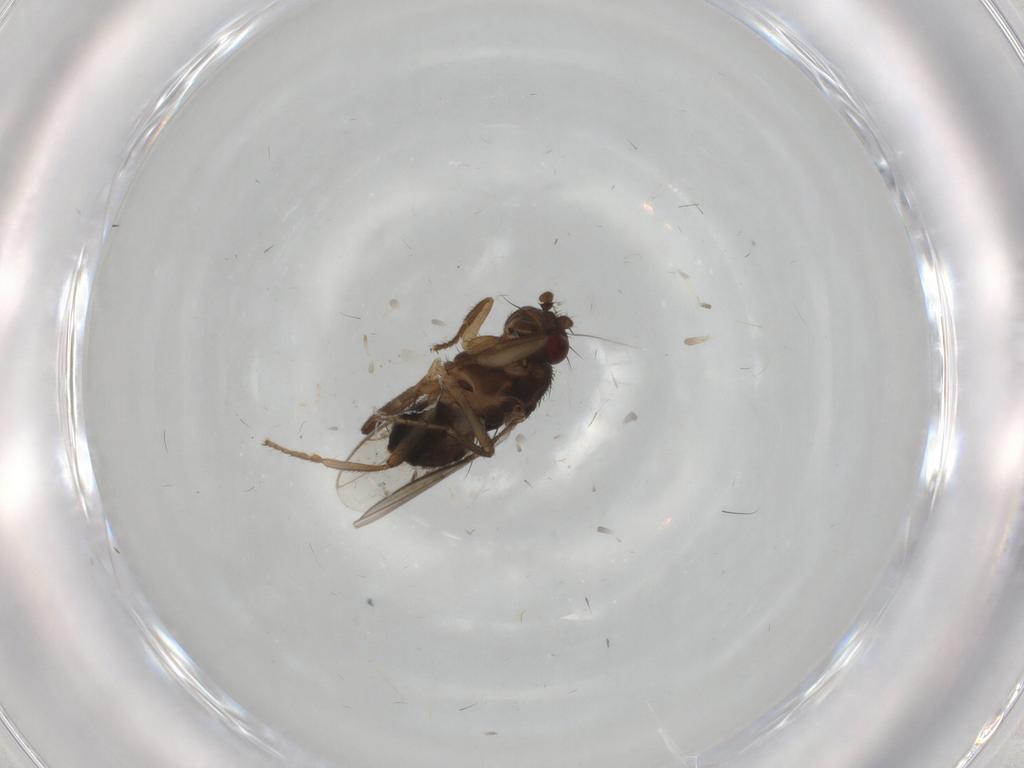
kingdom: Animalia
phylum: Arthropoda
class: Insecta
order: Diptera
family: Sphaeroceridae
